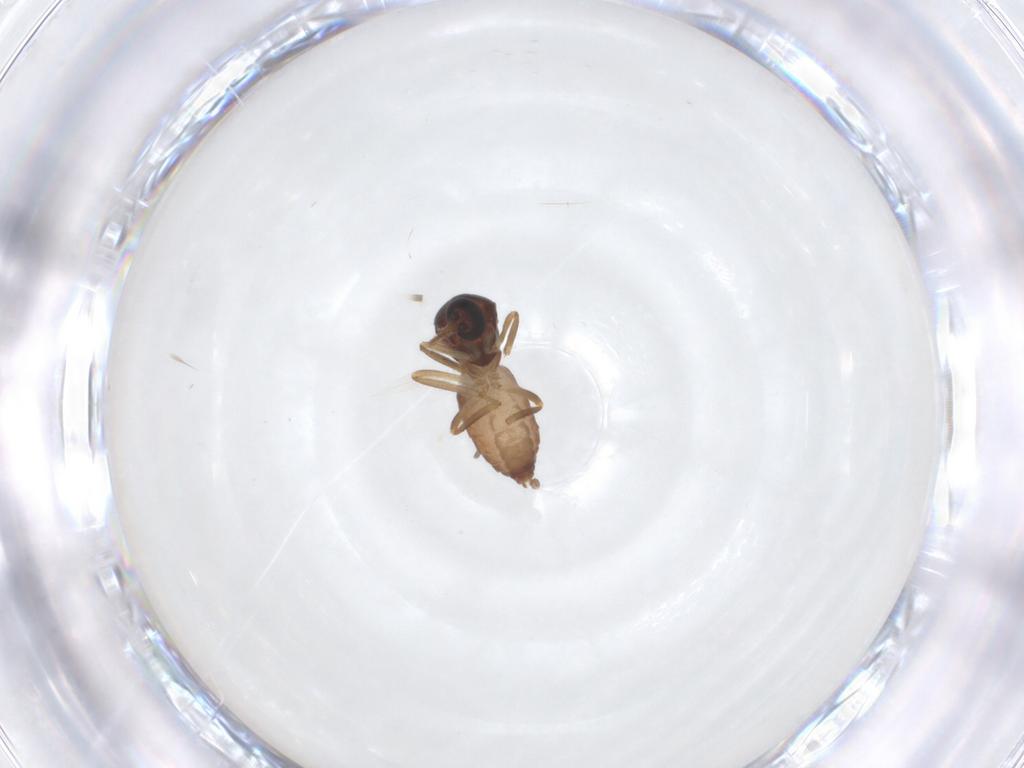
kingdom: Animalia
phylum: Arthropoda
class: Insecta
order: Diptera
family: Ceratopogonidae
